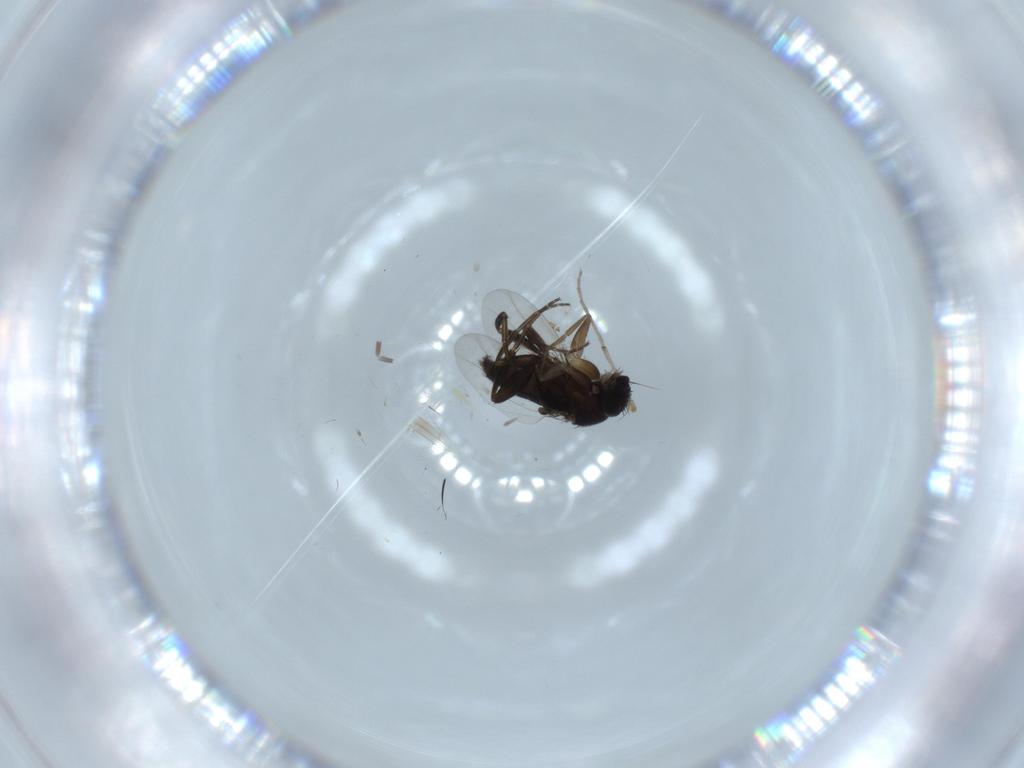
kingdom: Animalia
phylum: Arthropoda
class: Insecta
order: Diptera
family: Chironomidae
